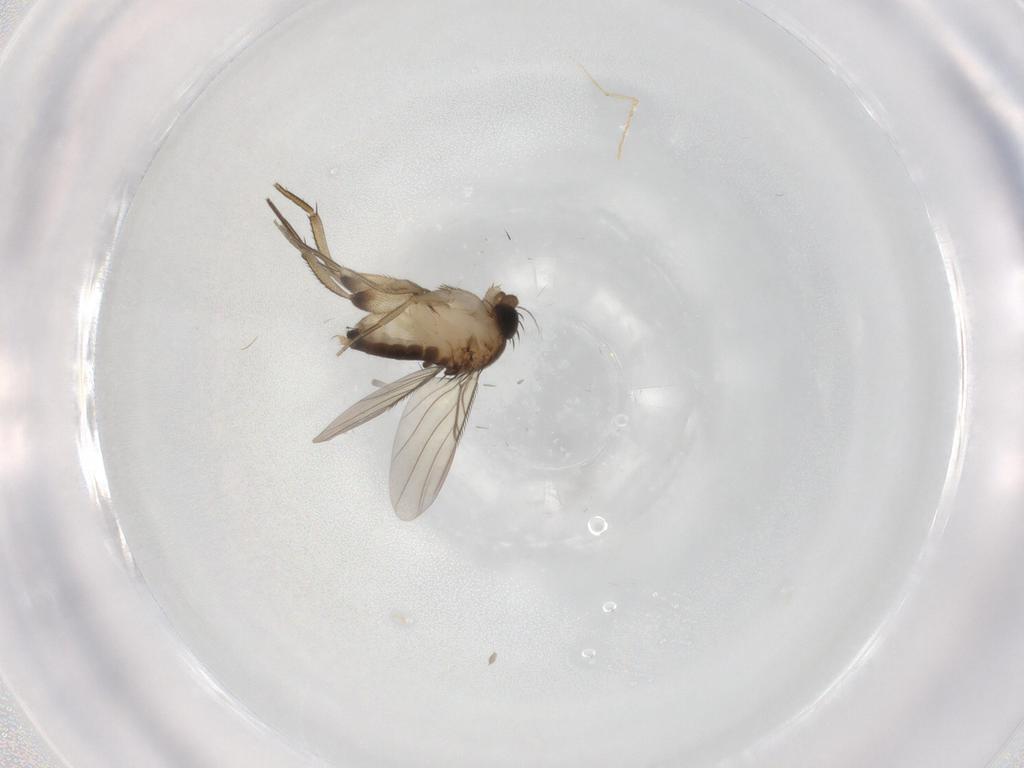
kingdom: Animalia
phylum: Arthropoda
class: Insecta
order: Diptera
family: Phoridae
